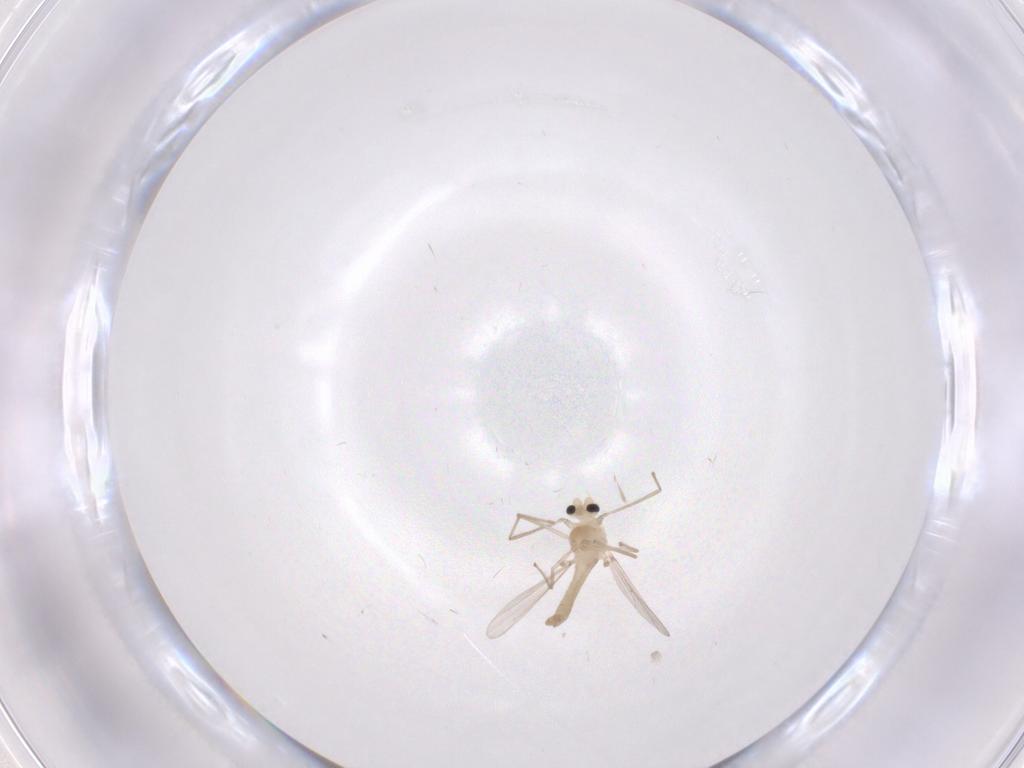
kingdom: Animalia
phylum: Arthropoda
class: Insecta
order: Diptera
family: Chironomidae
